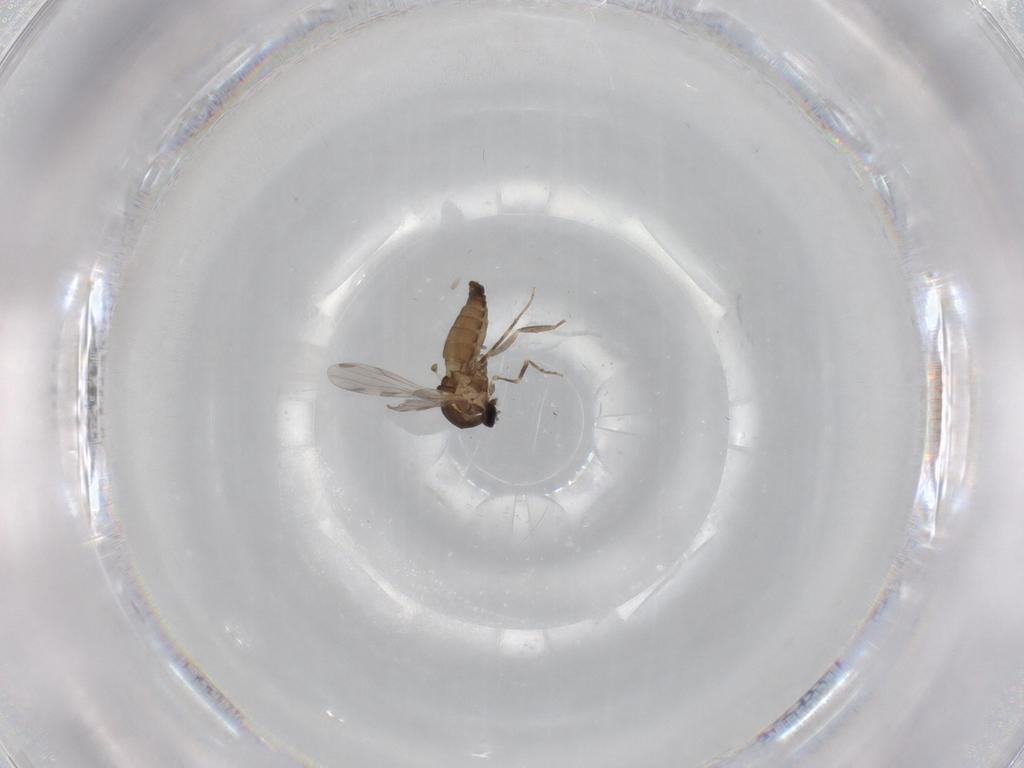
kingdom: Animalia
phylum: Arthropoda
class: Insecta
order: Diptera
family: Ceratopogonidae
